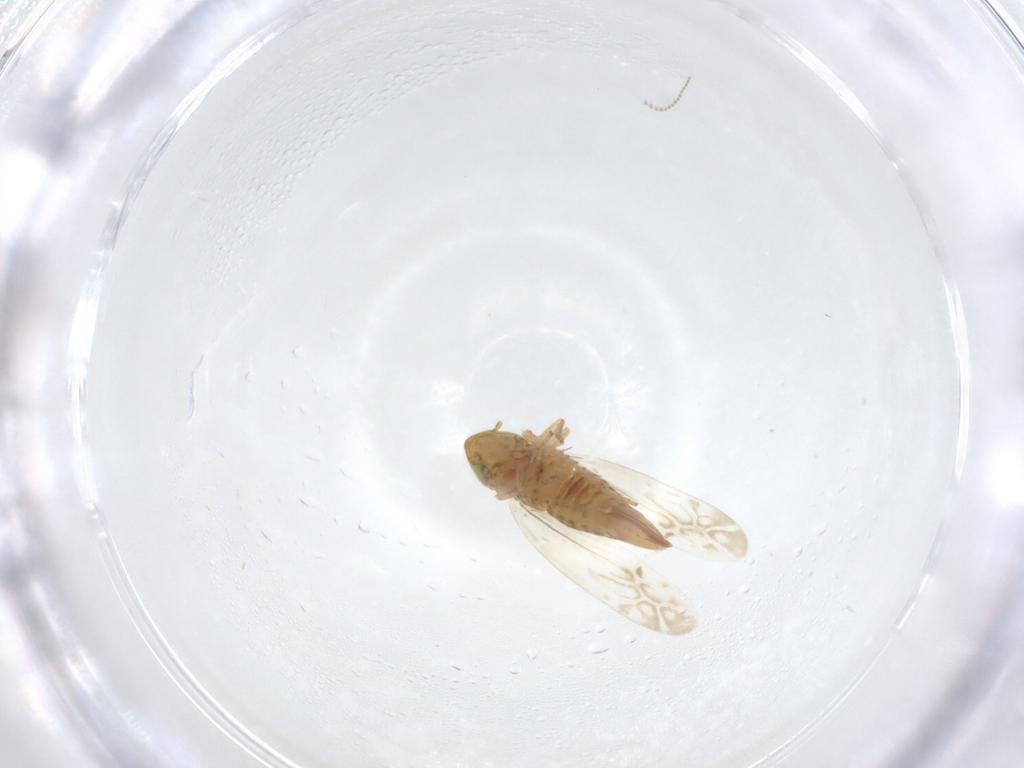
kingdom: Animalia
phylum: Arthropoda
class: Insecta
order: Hemiptera
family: Cicadellidae
